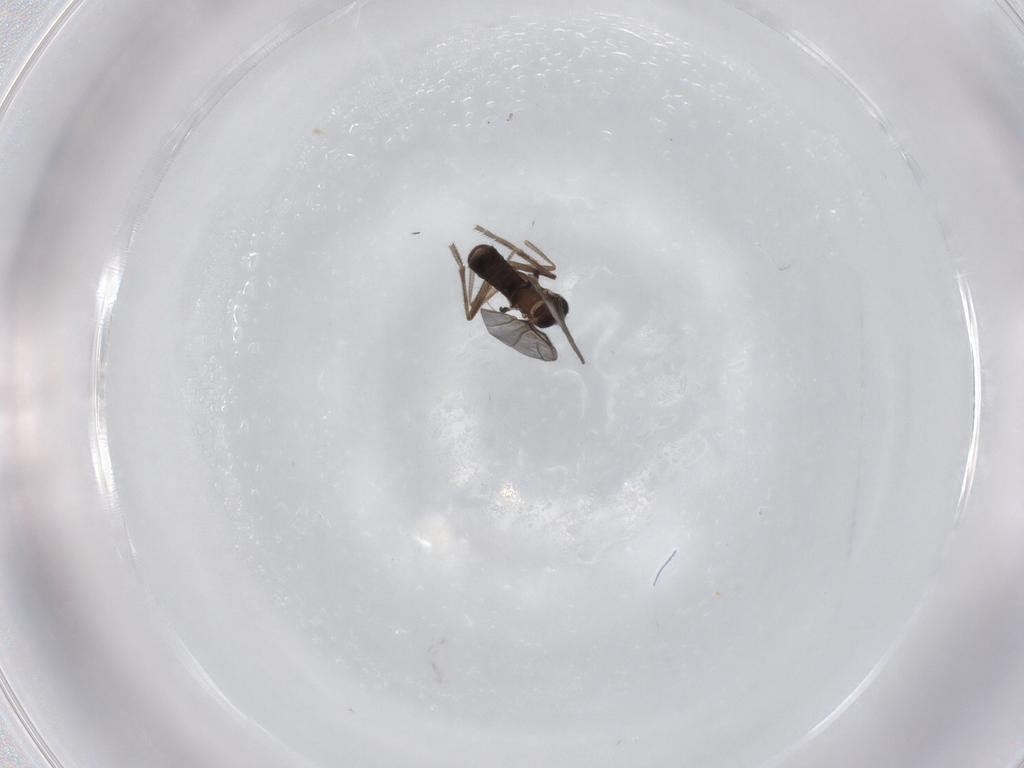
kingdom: Animalia
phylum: Arthropoda
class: Insecta
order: Diptera
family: Phoridae
